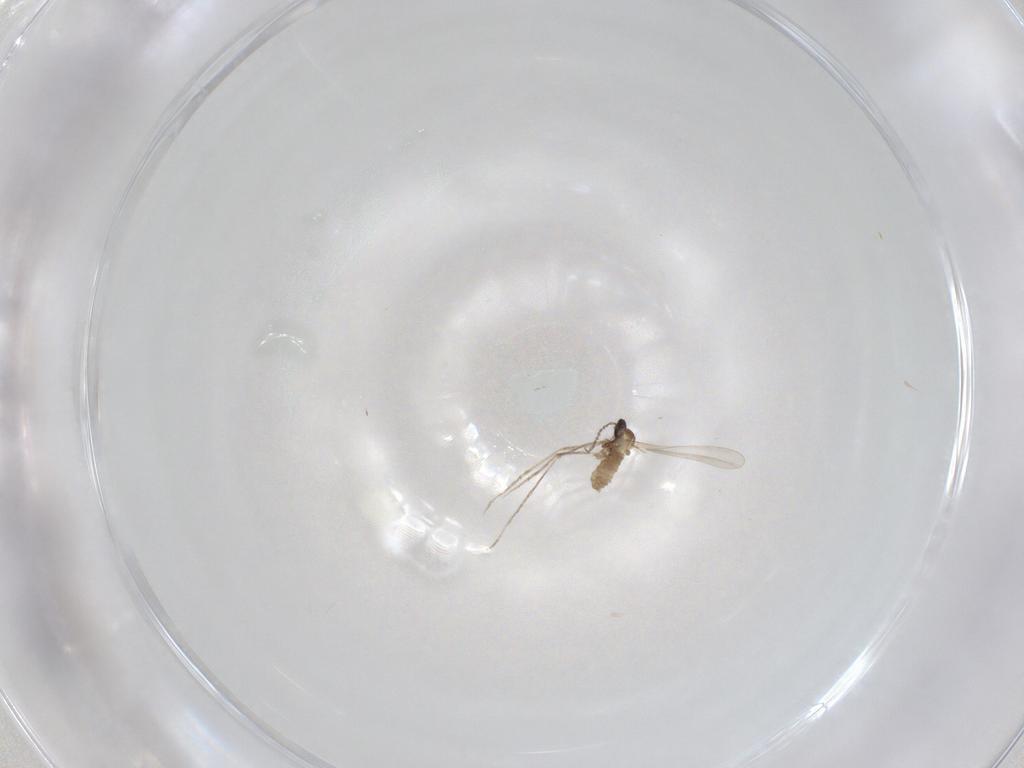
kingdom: Animalia
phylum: Arthropoda
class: Insecta
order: Diptera
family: Cecidomyiidae
